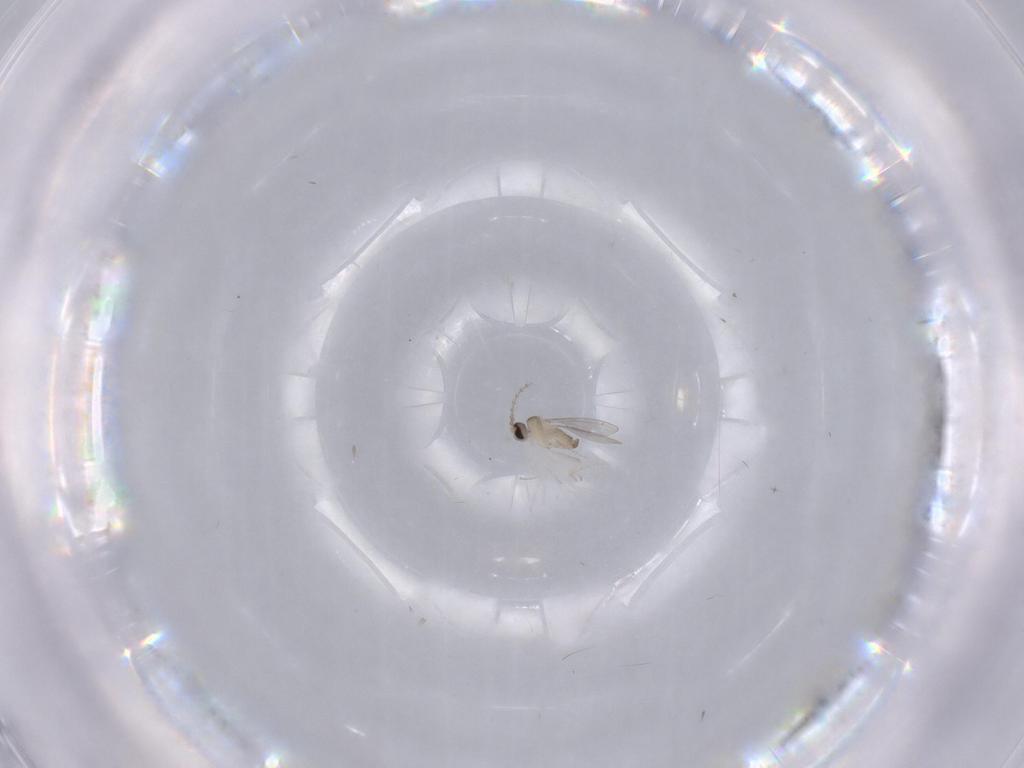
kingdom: Animalia
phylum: Arthropoda
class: Insecta
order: Diptera
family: Cecidomyiidae
